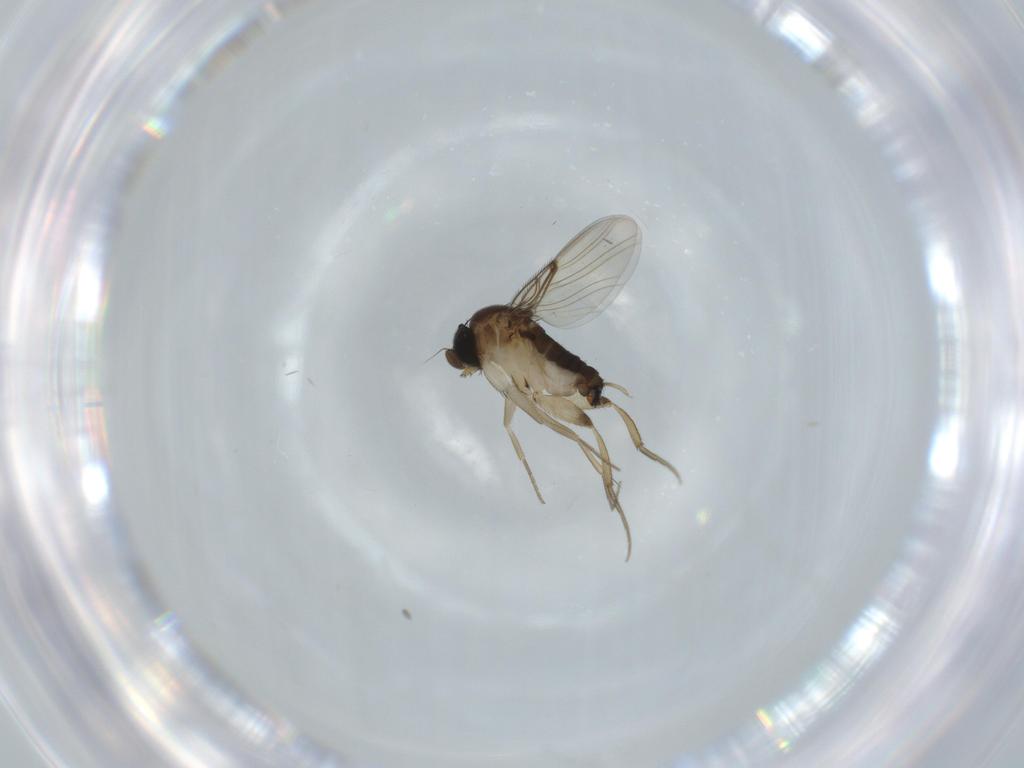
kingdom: Animalia
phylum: Arthropoda
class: Insecta
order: Diptera
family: Phoridae
